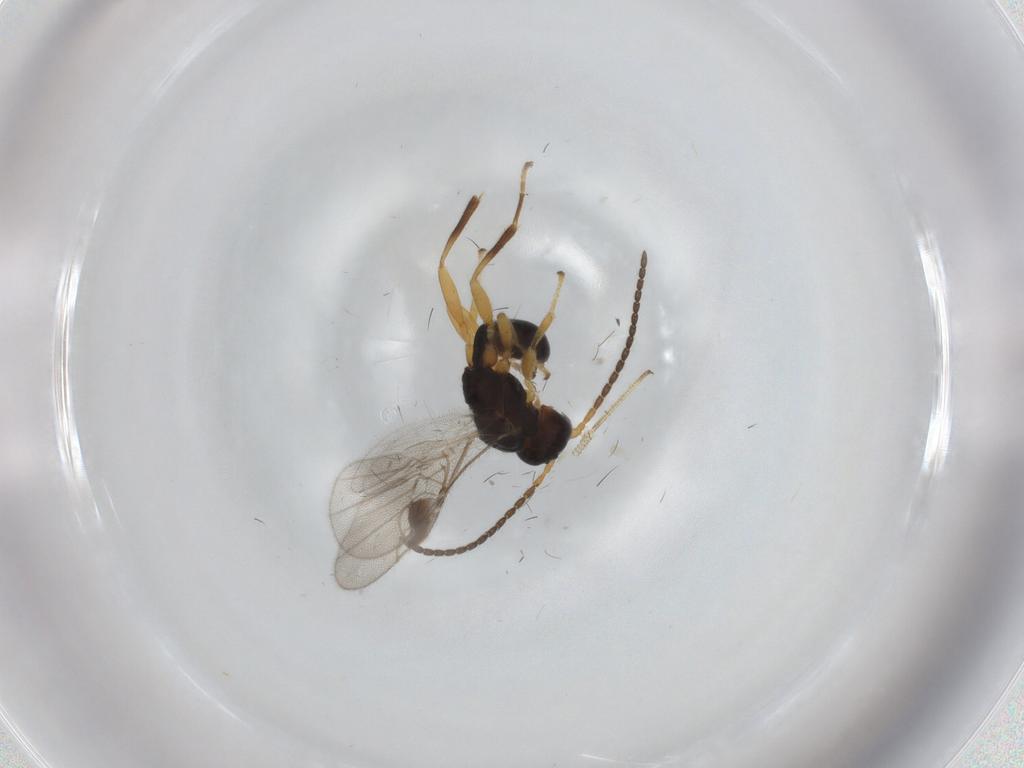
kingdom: Animalia
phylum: Arthropoda
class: Insecta
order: Hymenoptera
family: Braconidae
